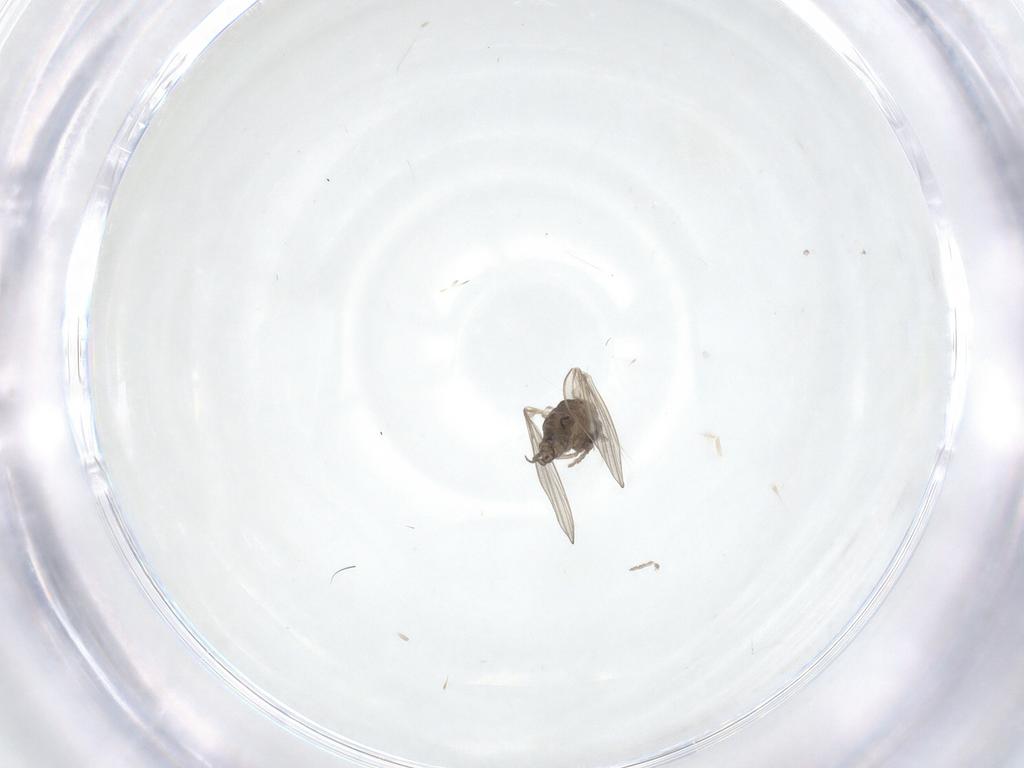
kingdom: Animalia
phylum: Arthropoda
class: Insecta
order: Diptera
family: Psychodidae
